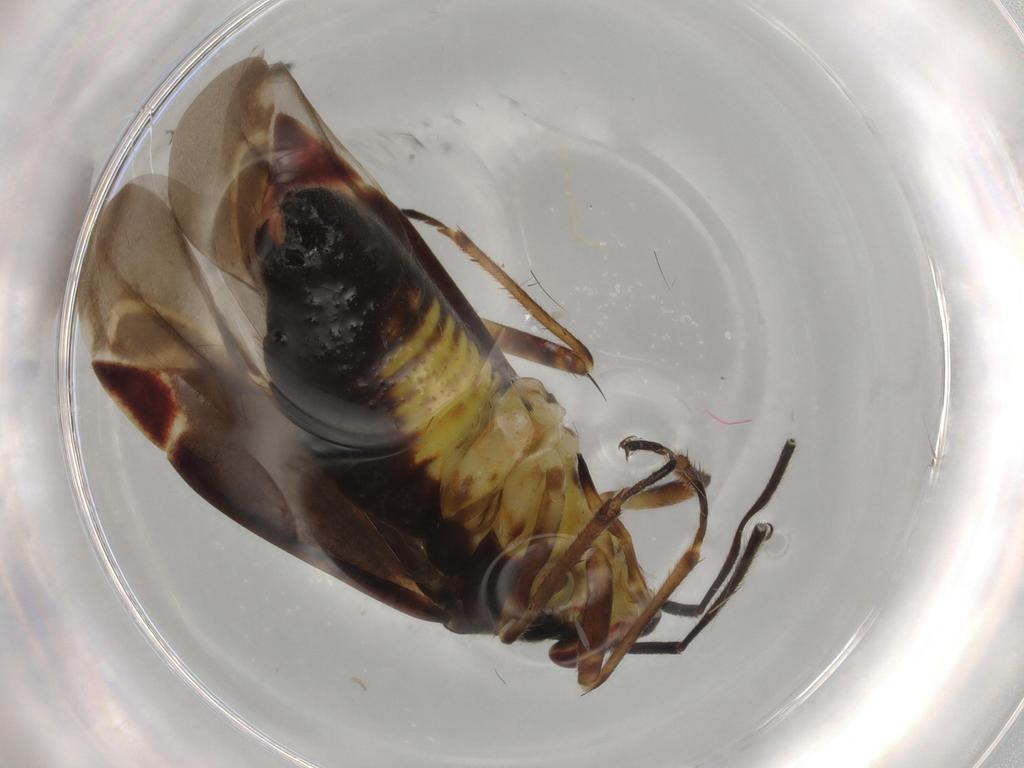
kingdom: Animalia
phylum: Arthropoda
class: Insecta
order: Hemiptera
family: Miridae
